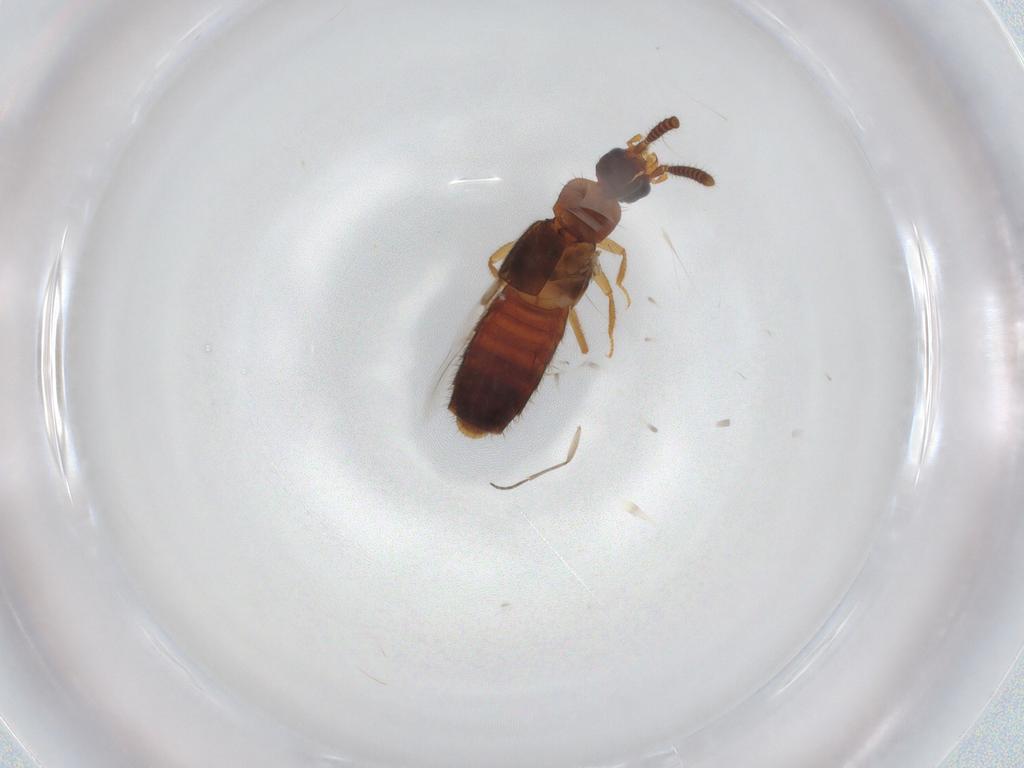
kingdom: Animalia
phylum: Arthropoda
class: Insecta
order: Coleoptera
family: Staphylinidae
